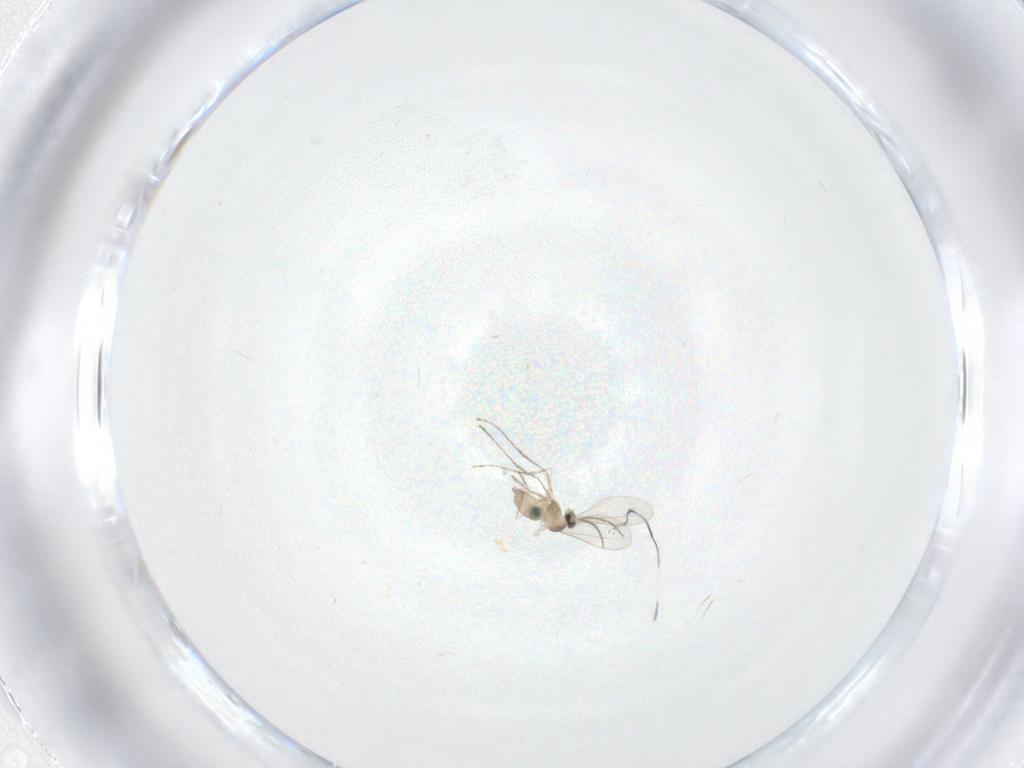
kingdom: Animalia
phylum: Arthropoda
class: Insecta
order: Diptera
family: Cecidomyiidae
